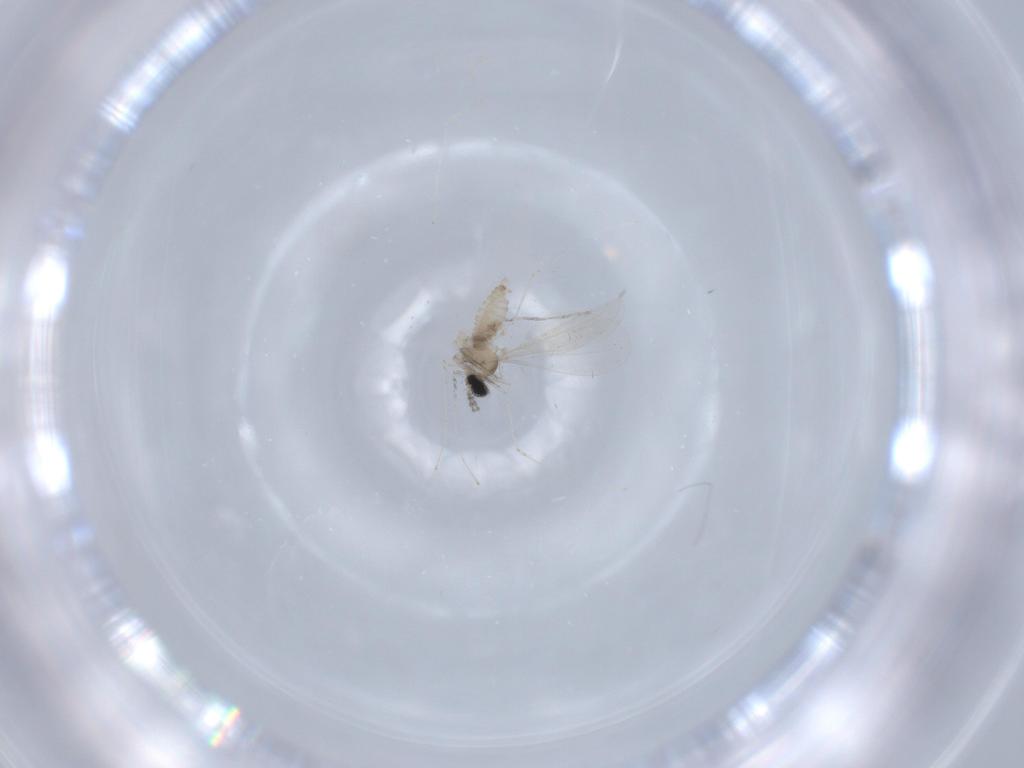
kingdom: Animalia
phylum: Arthropoda
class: Insecta
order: Diptera
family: Cecidomyiidae
